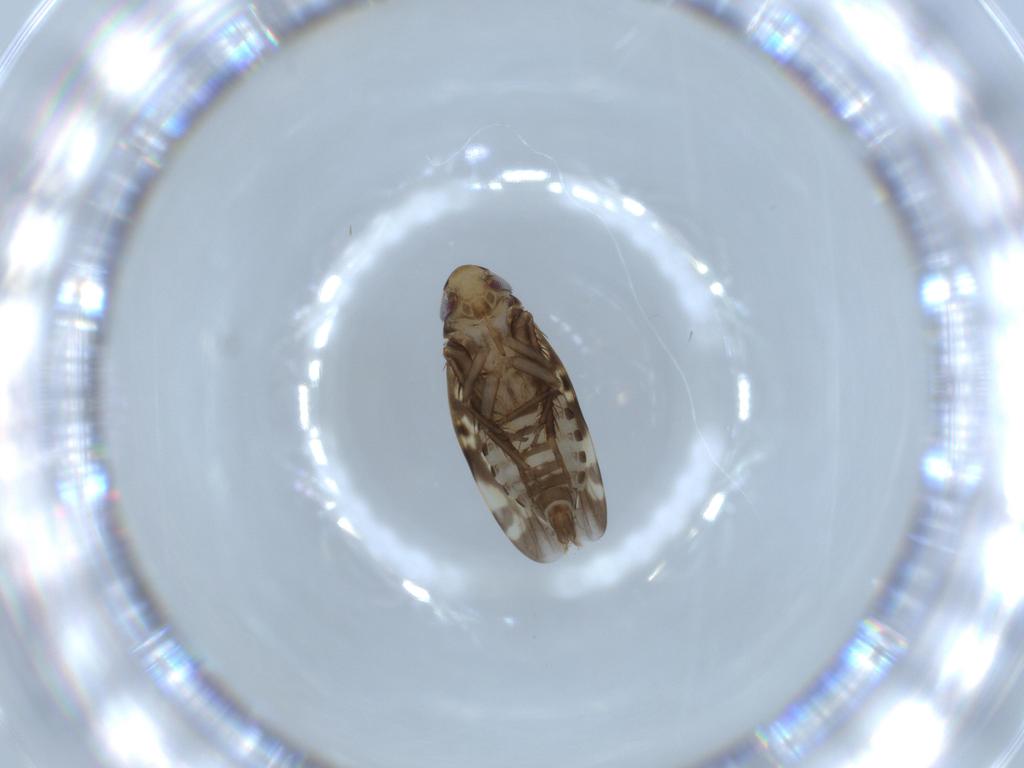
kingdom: Animalia
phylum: Arthropoda
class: Insecta
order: Hemiptera
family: Cicadellidae
